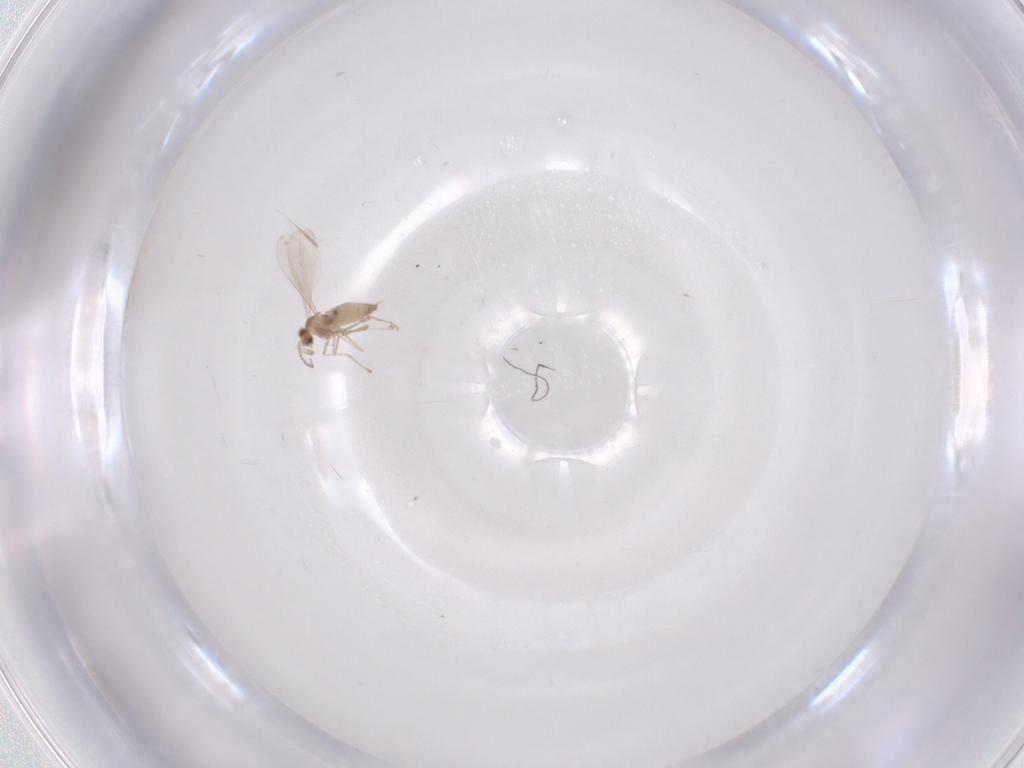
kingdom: Animalia
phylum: Arthropoda
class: Insecta
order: Diptera
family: Cecidomyiidae
